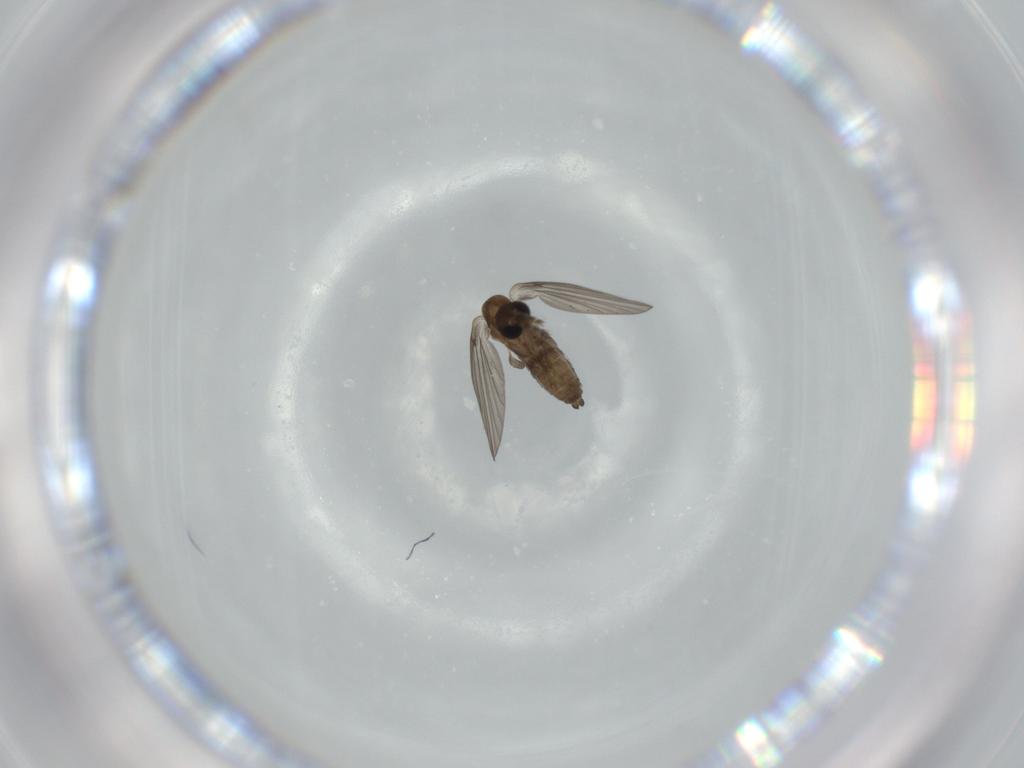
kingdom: Animalia
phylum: Arthropoda
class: Insecta
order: Diptera
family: Psychodidae
